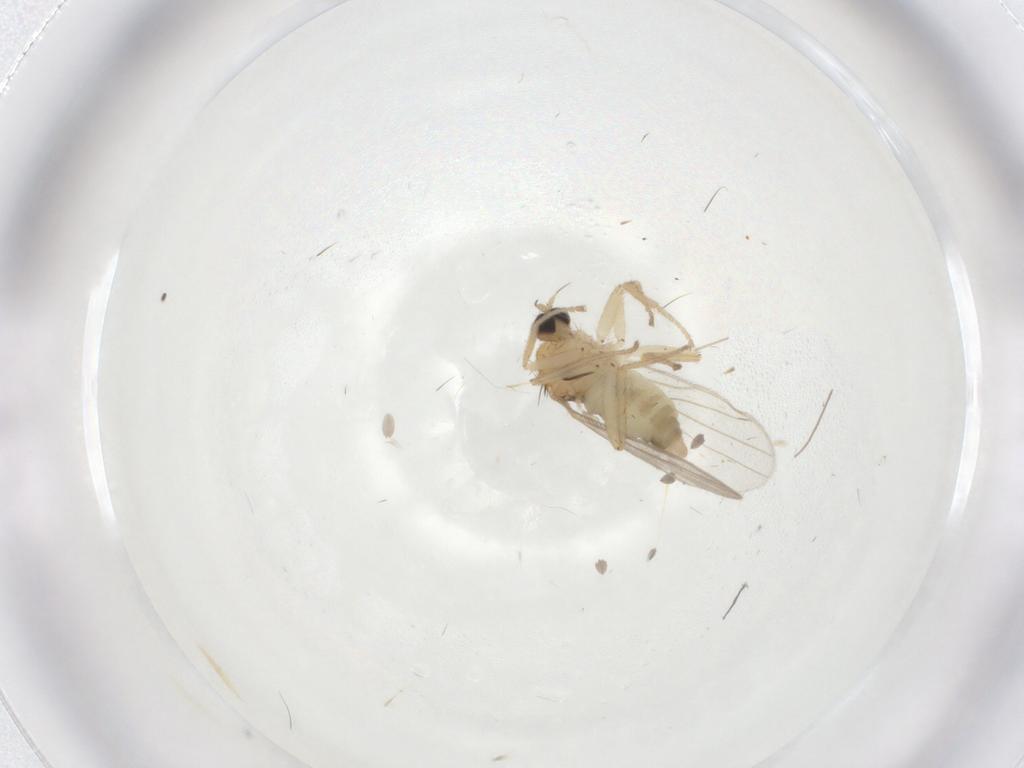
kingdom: Animalia
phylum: Arthropoda
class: Insecta
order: Diptera
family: Hybotidae
